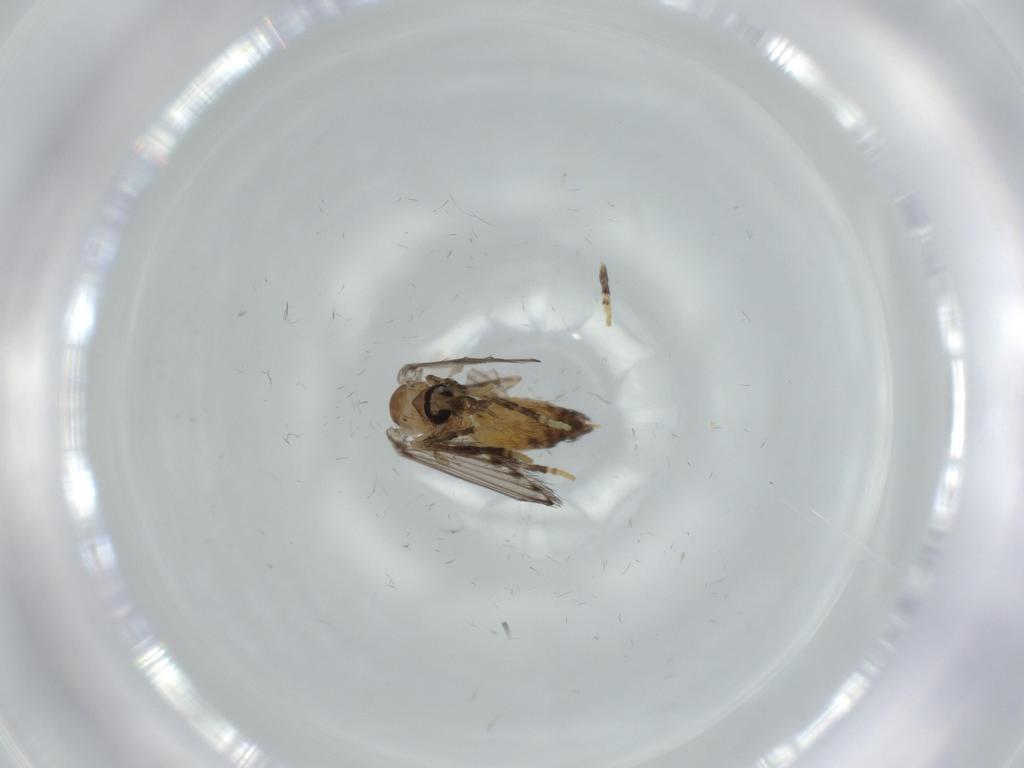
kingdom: Animalia
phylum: Arthropoda
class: Insecta
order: Diptera
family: Psychodidae
